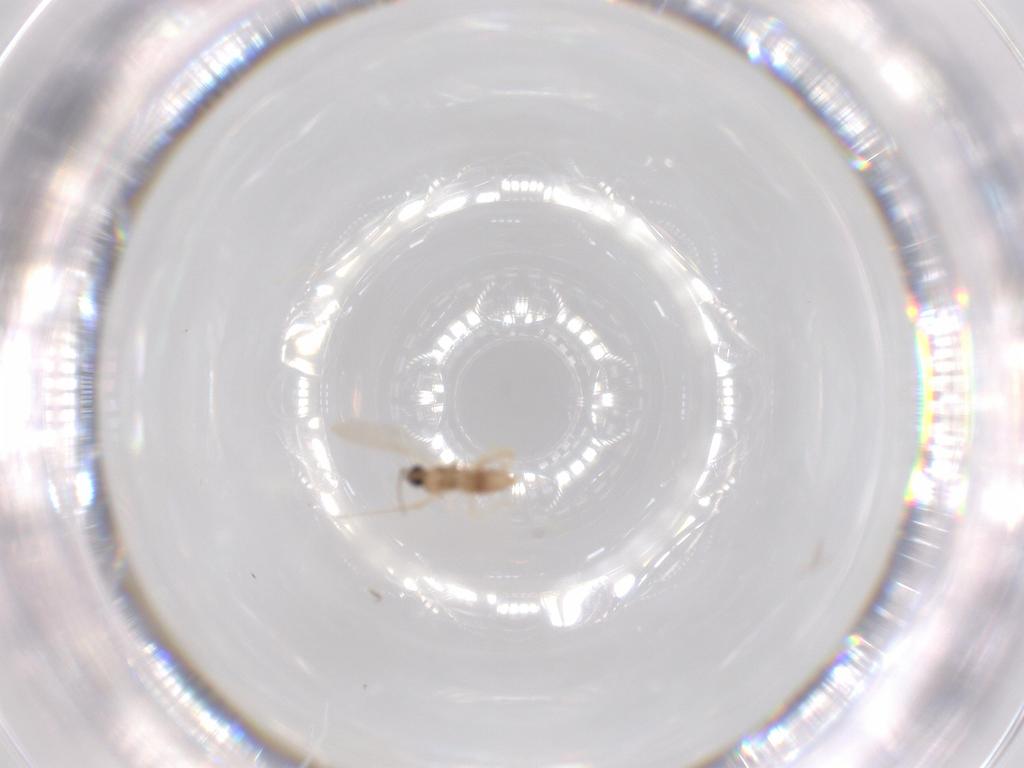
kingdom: Animalia
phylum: Arthropoda
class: Insecta
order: Diptera
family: Cecidomyiidae
